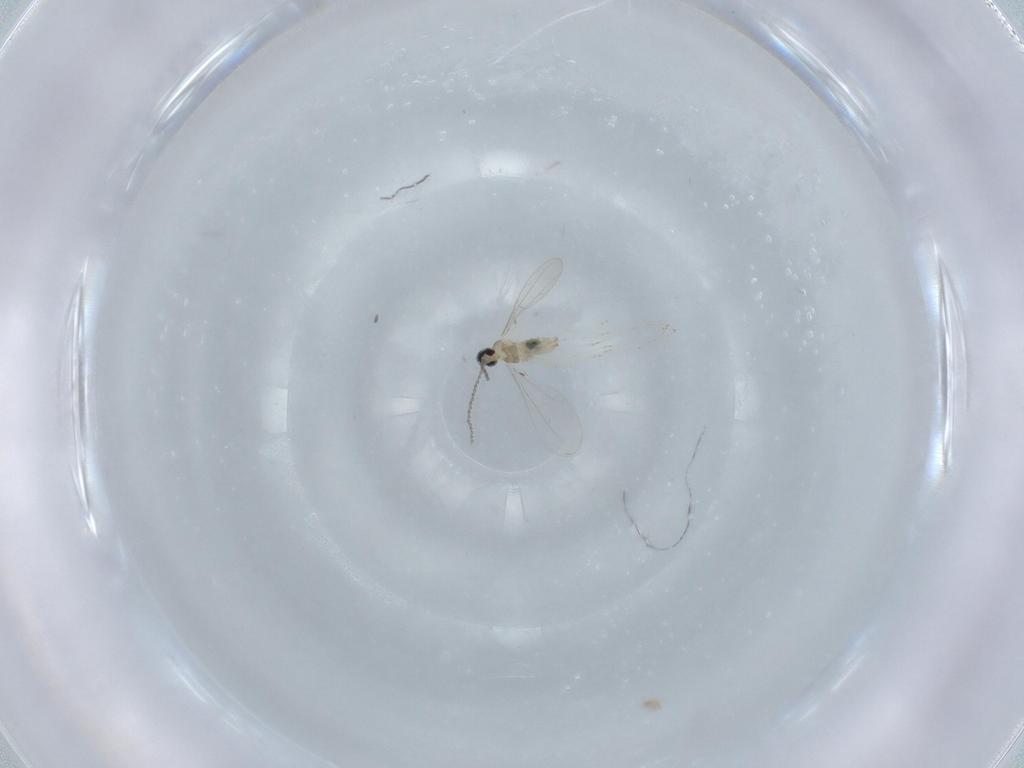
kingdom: Animalia
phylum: Arthropoda
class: Insecta
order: Diptera
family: Cecidomyiidae
